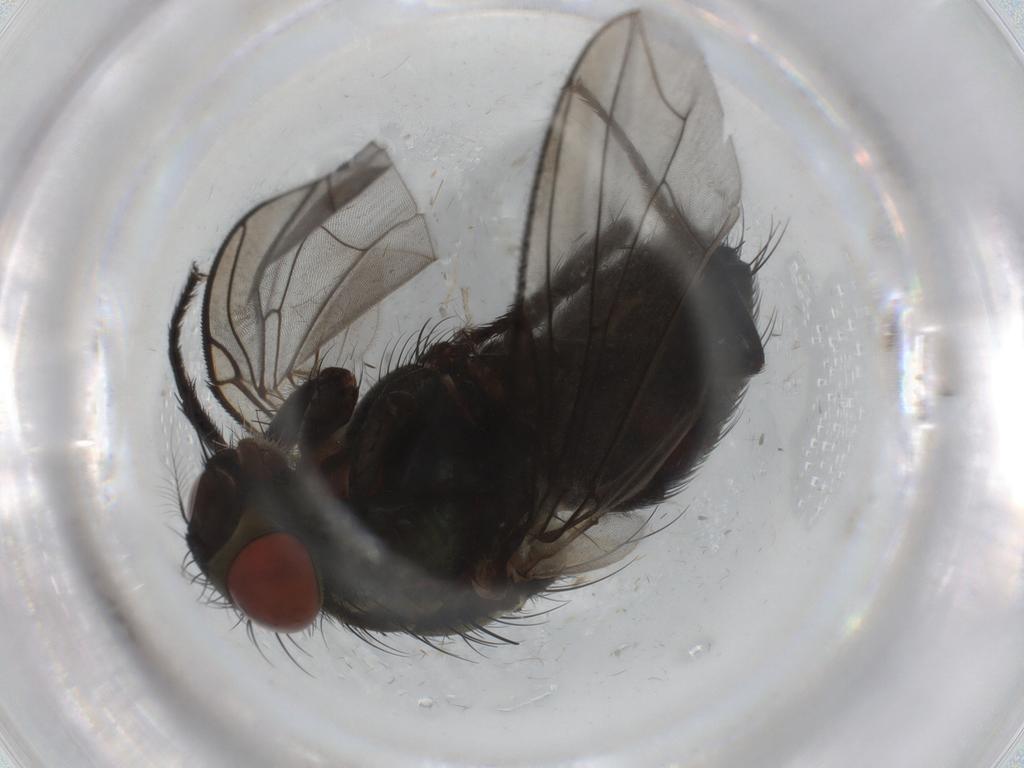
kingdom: Animalia
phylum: Arthropoda
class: Insecta
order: Diptera
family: Sarcophagidae
